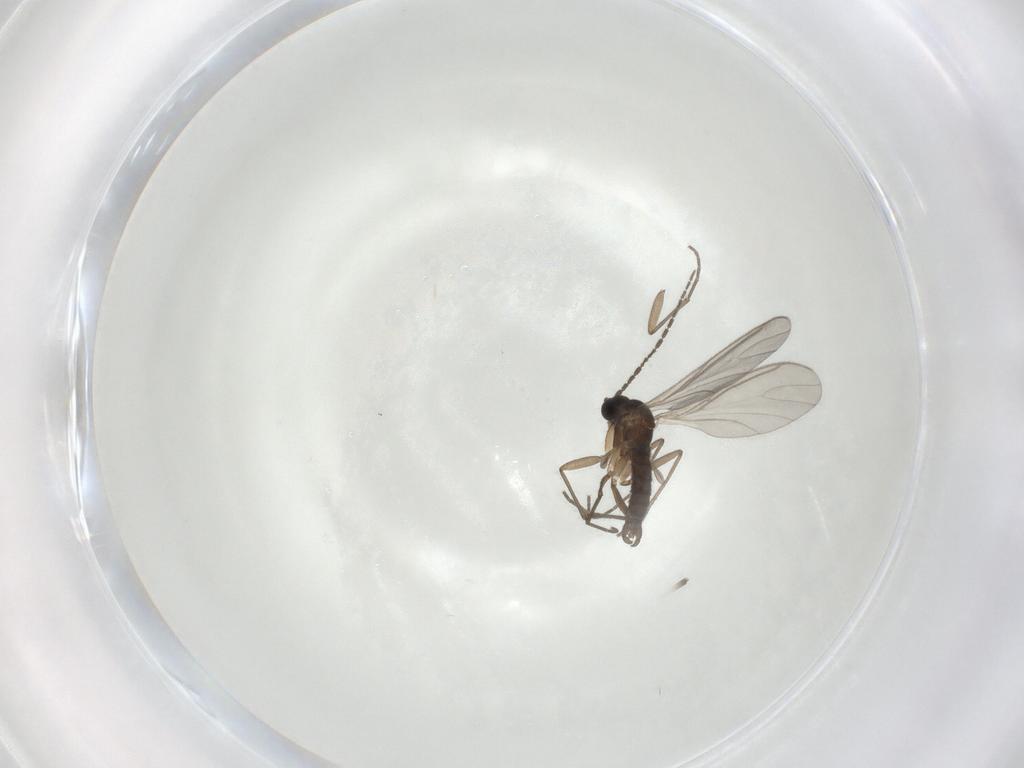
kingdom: Animalia
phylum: Arthropoda
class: Insecta
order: Diptera
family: Sciaridae
